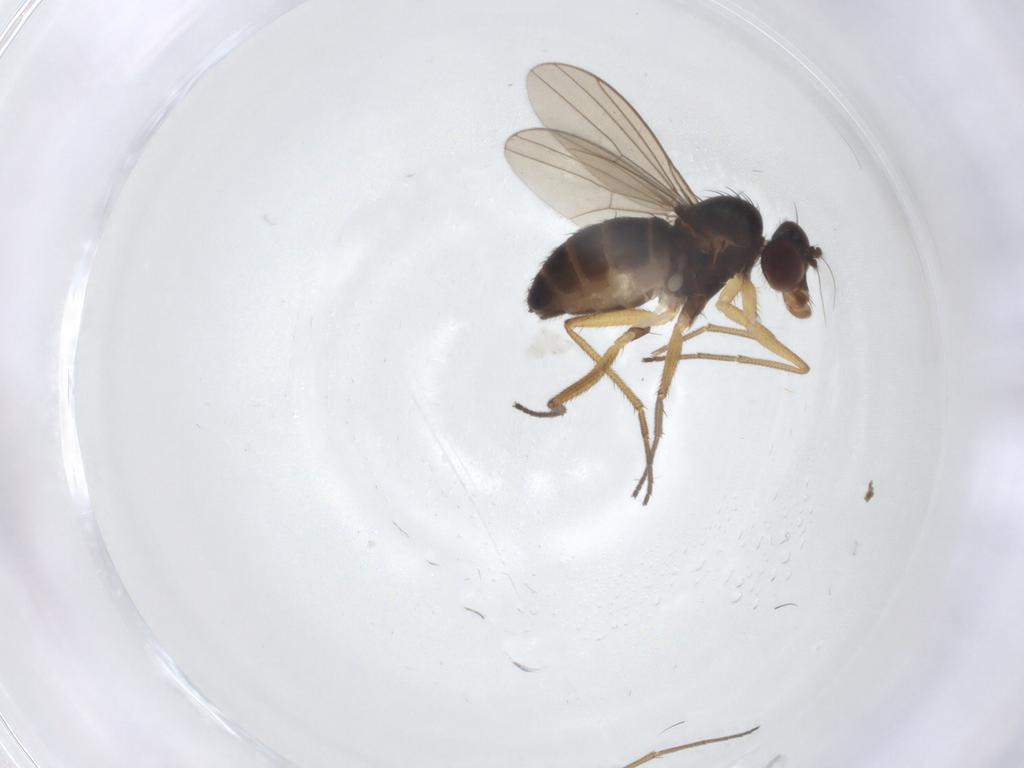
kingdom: Animalia
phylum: Arthropoda
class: Insecta
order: Diptera
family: Dolichopodidae
